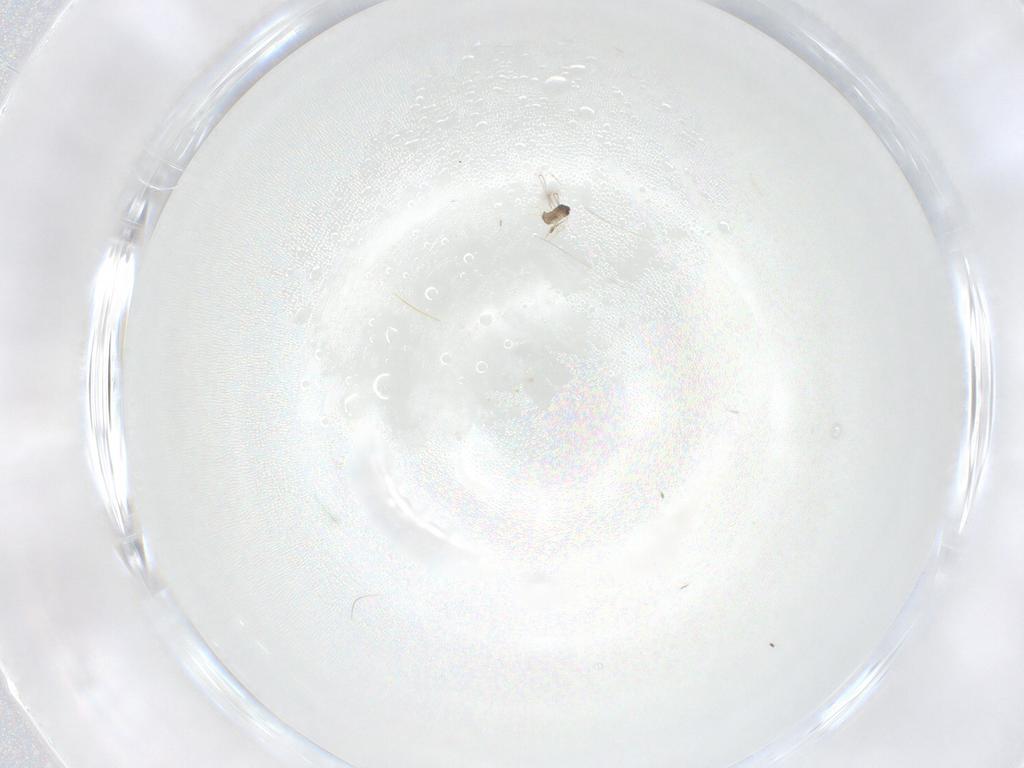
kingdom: Animalia
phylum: Arthropoda
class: Insecta
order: Hymenoptera
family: Mymaridae
